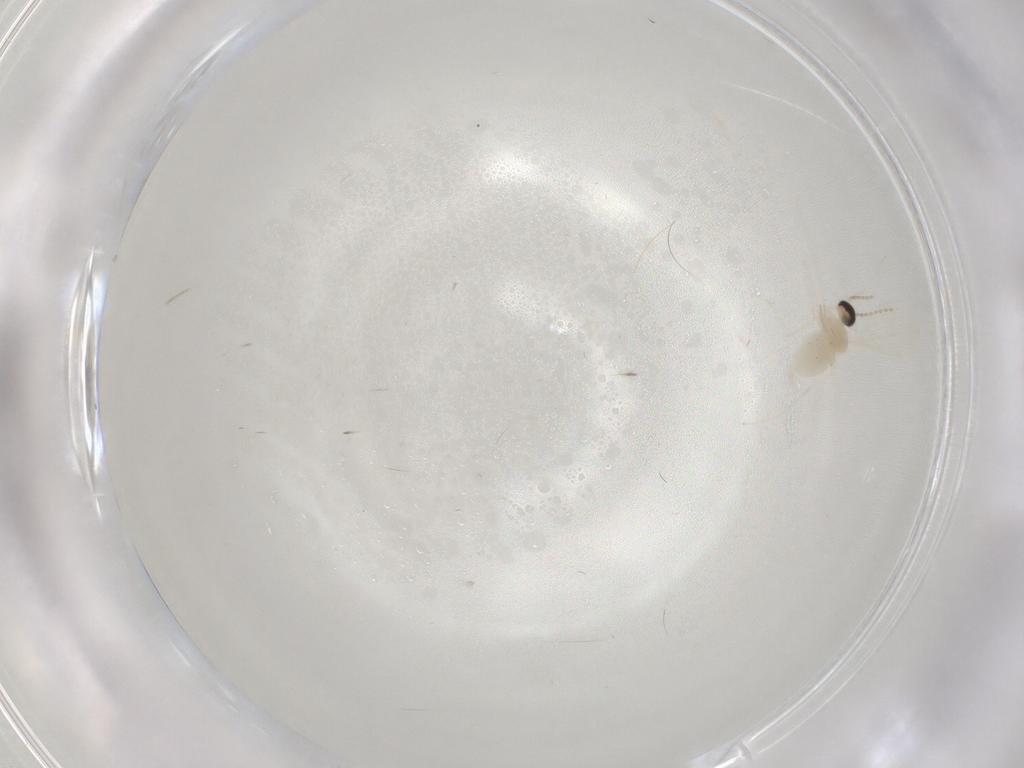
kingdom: Animalia
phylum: Arthropoda
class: Insecta
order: Diptera
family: Cecidomyiidae
